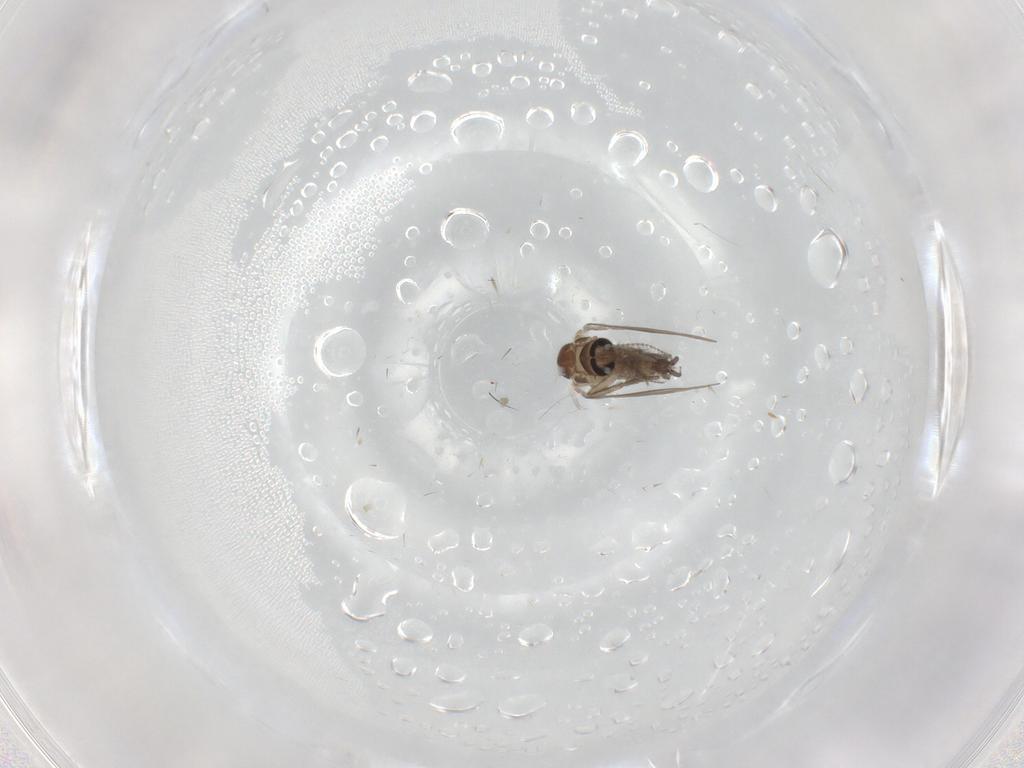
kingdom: Animalia
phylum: Arthropoda
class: Insecta
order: Diptera
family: Psychodidae
